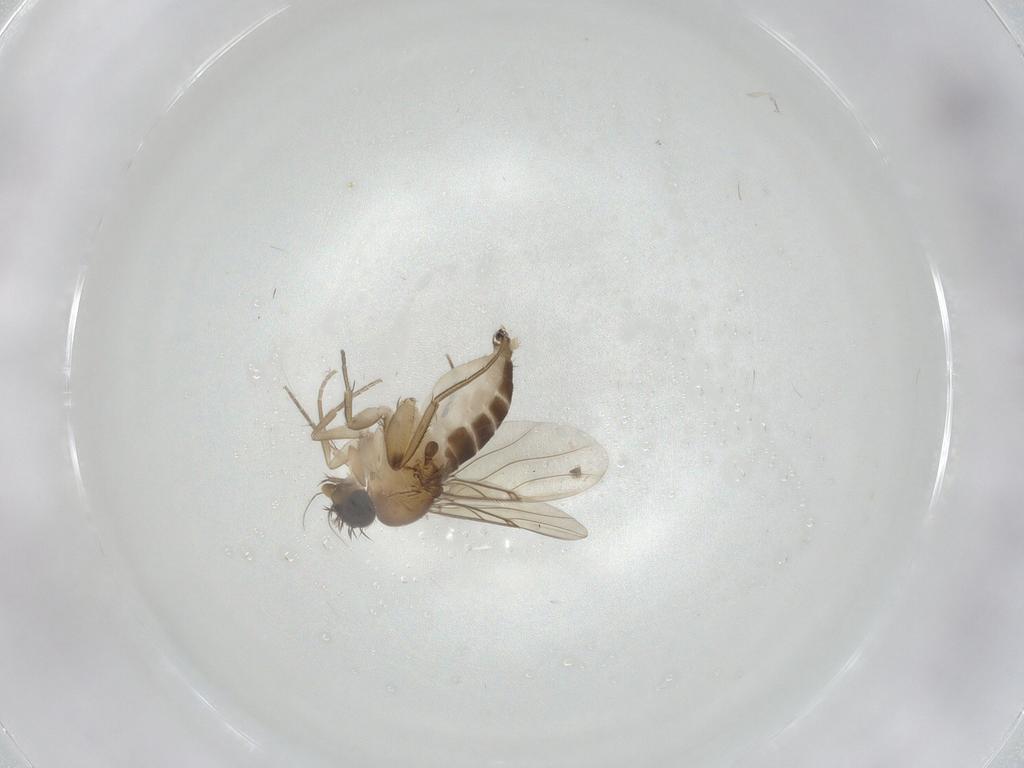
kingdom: Animalia
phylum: Arthropoda
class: Insecta
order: Diptera
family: Phoridae
